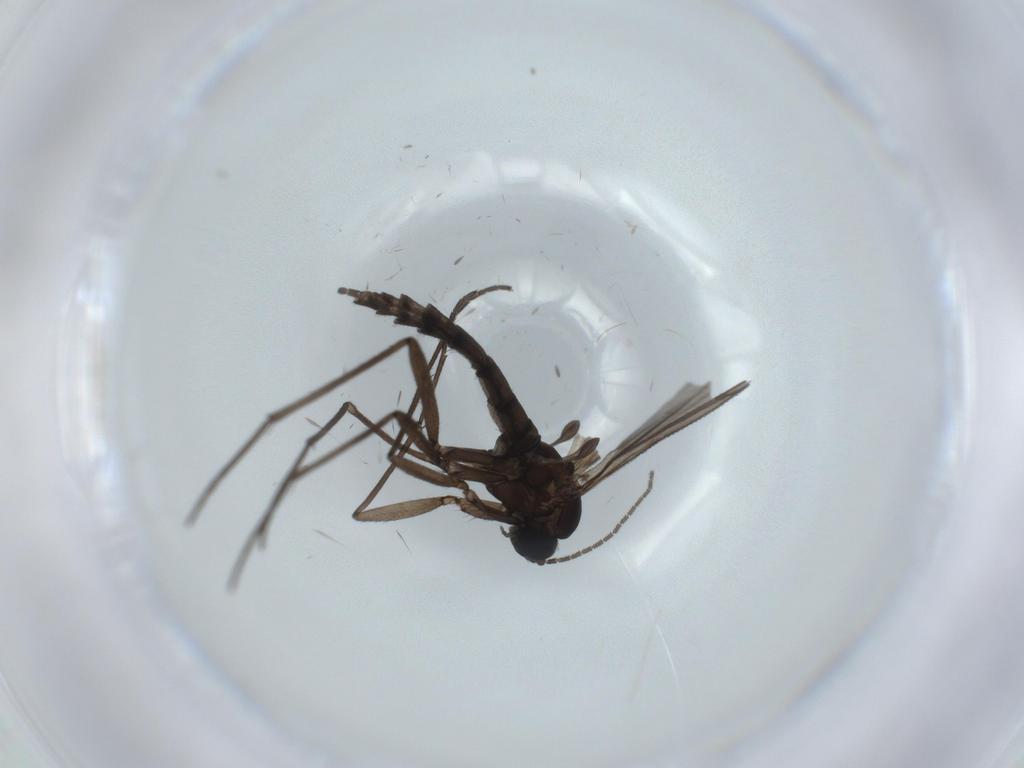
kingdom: Animalia
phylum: Arthropoda
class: Insecta
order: Diptera
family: Sciaridae
